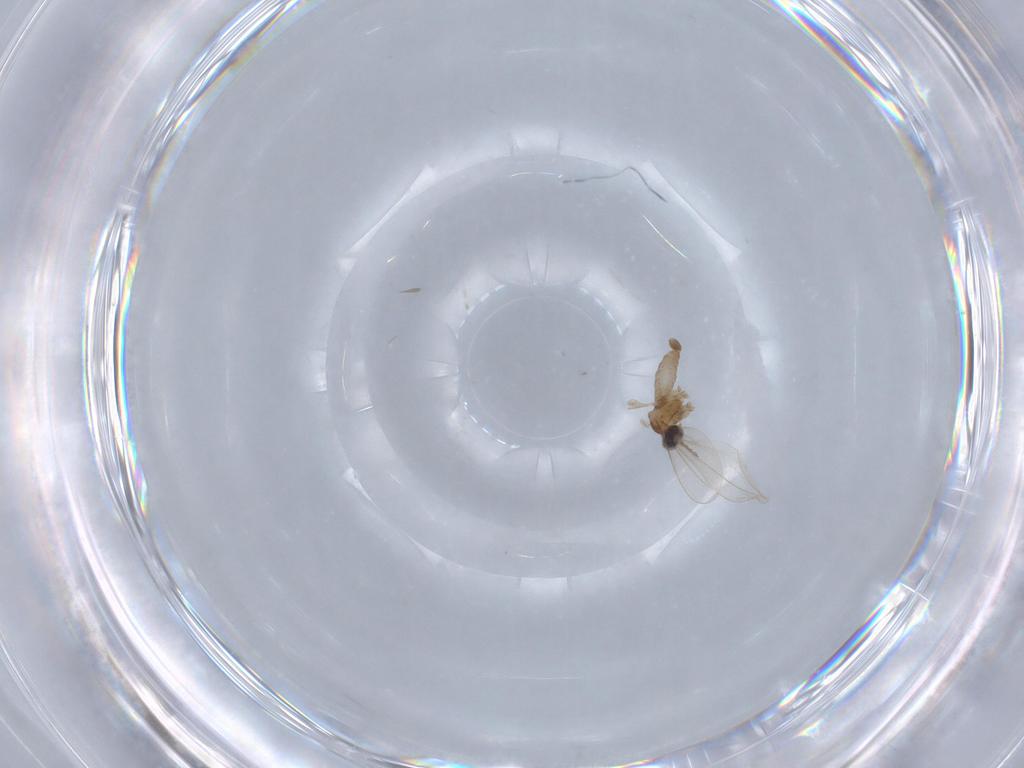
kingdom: Animalia
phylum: Arthropoda
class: Insecta
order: Diptera
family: Cecidomyiidae
